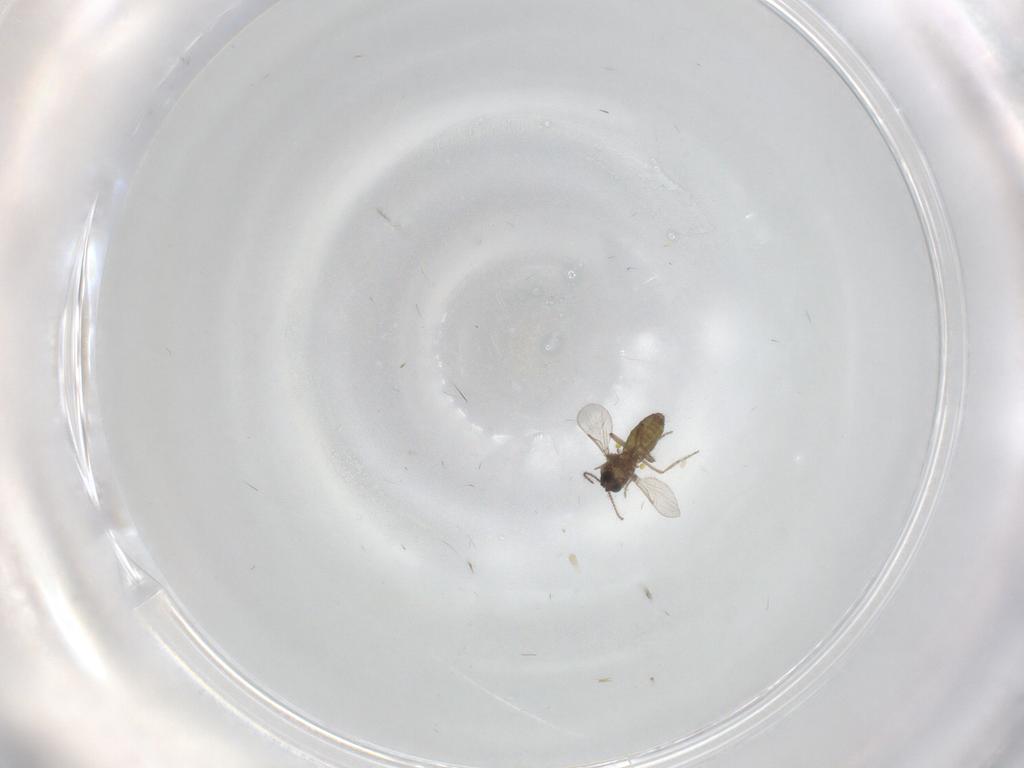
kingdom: Animalia
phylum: Arthropoda
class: Insecta
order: Diptera
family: Ceratopogonidae
